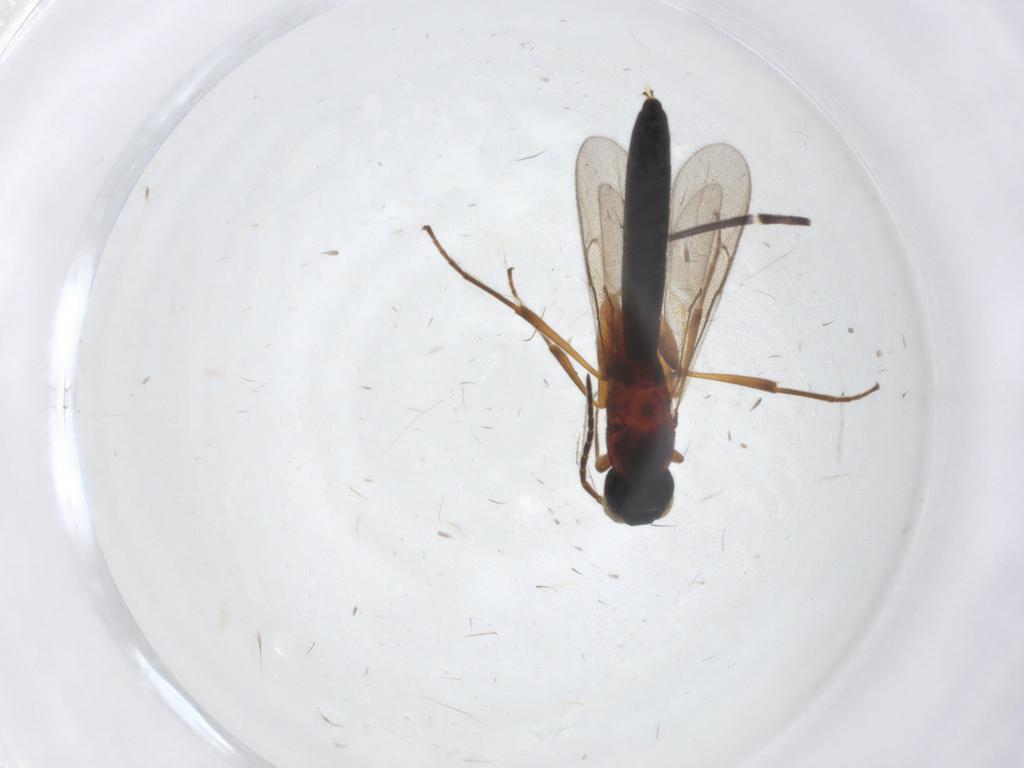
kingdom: Animalia
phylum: Arthropoda
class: Insecta
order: Hymenoptera
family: Scelionidae
